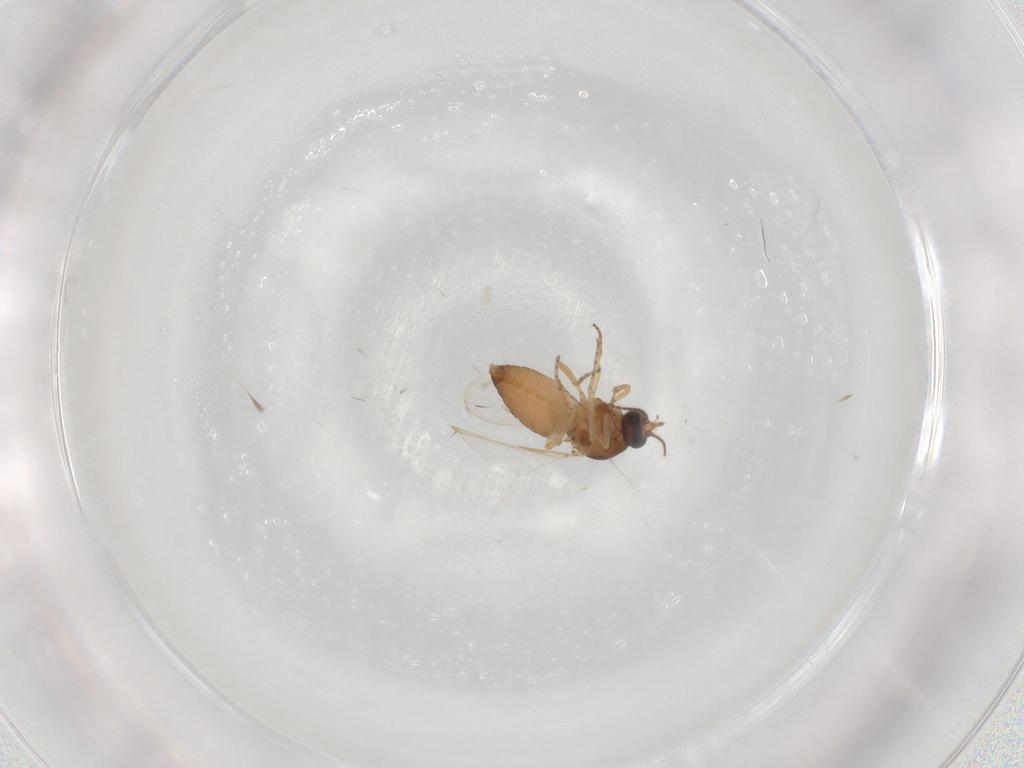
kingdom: Animalia
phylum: Arthropoda
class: Insecta
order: Diptera
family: Ceratopogonidae
